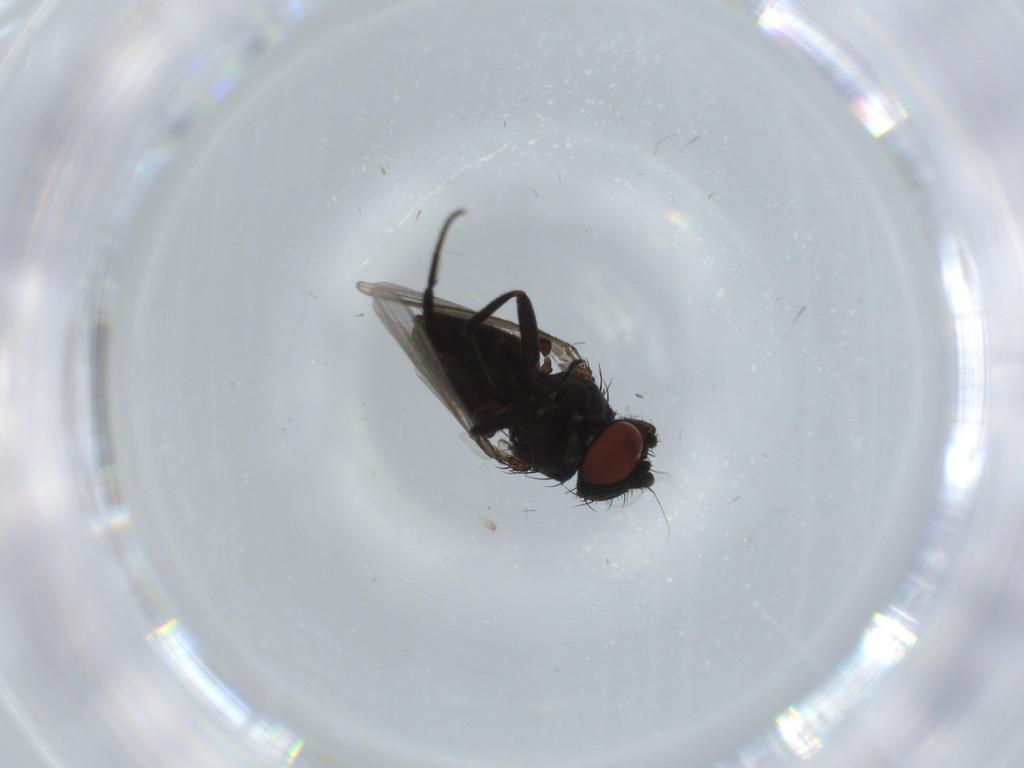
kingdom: Animalia
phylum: Arthropoda
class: Insecta
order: Diptera
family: Milichiidae
